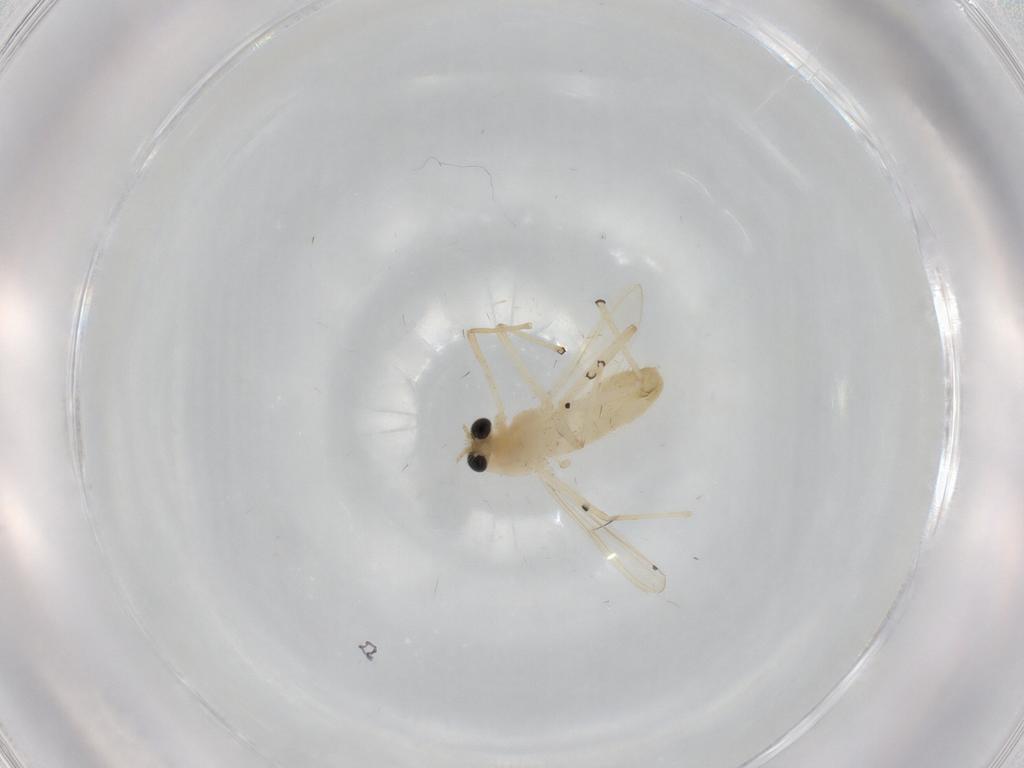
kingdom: Animalia
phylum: Arthropoda
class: Insecta
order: Diptera
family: Chironomidae
